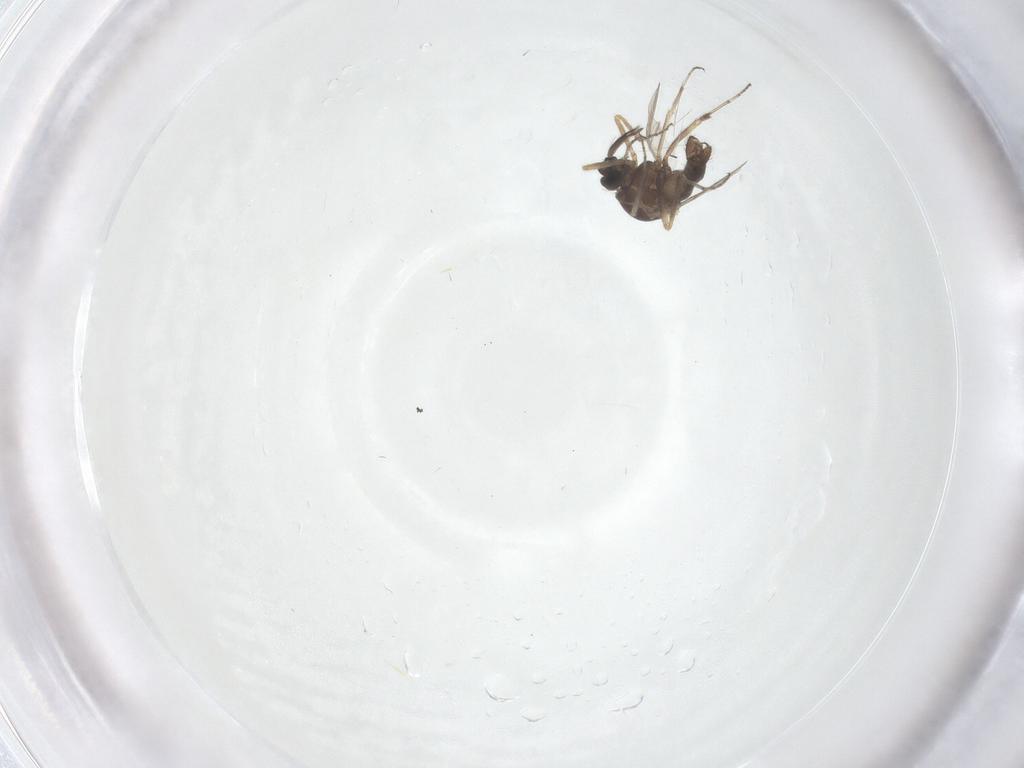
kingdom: Animalia
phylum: Arthropoda
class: Insecta
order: Diptera
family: Ceratopogonidae
